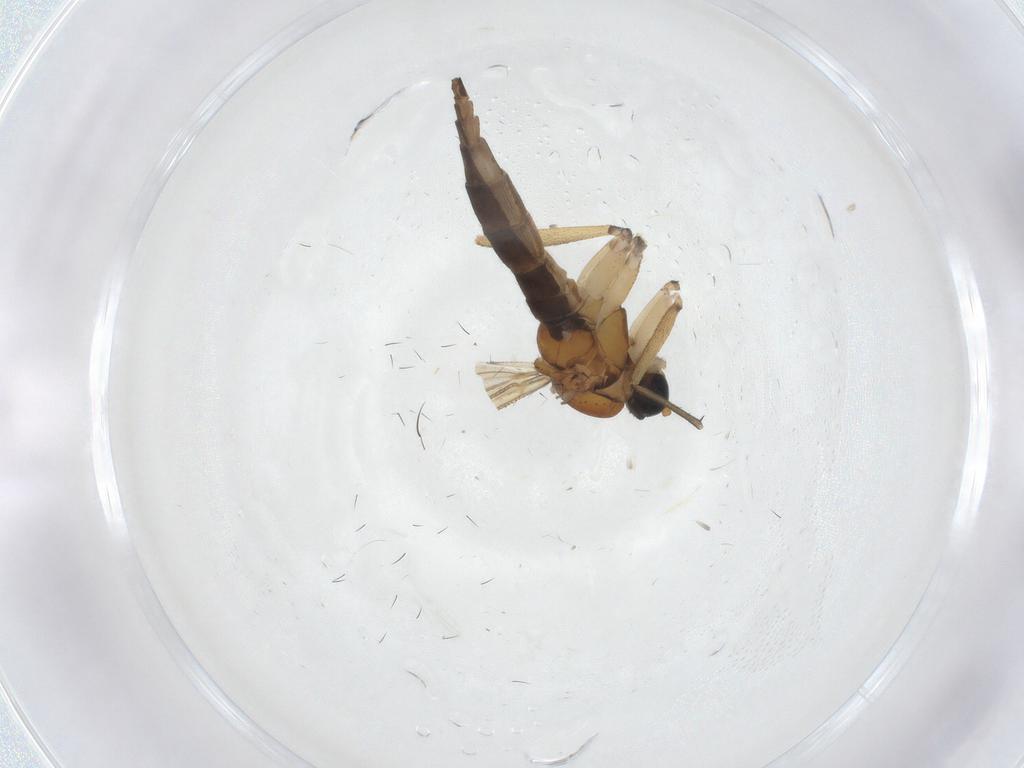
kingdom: Animalia
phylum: Arthropoda
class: Insecta
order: Diptera
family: Sciaridae
